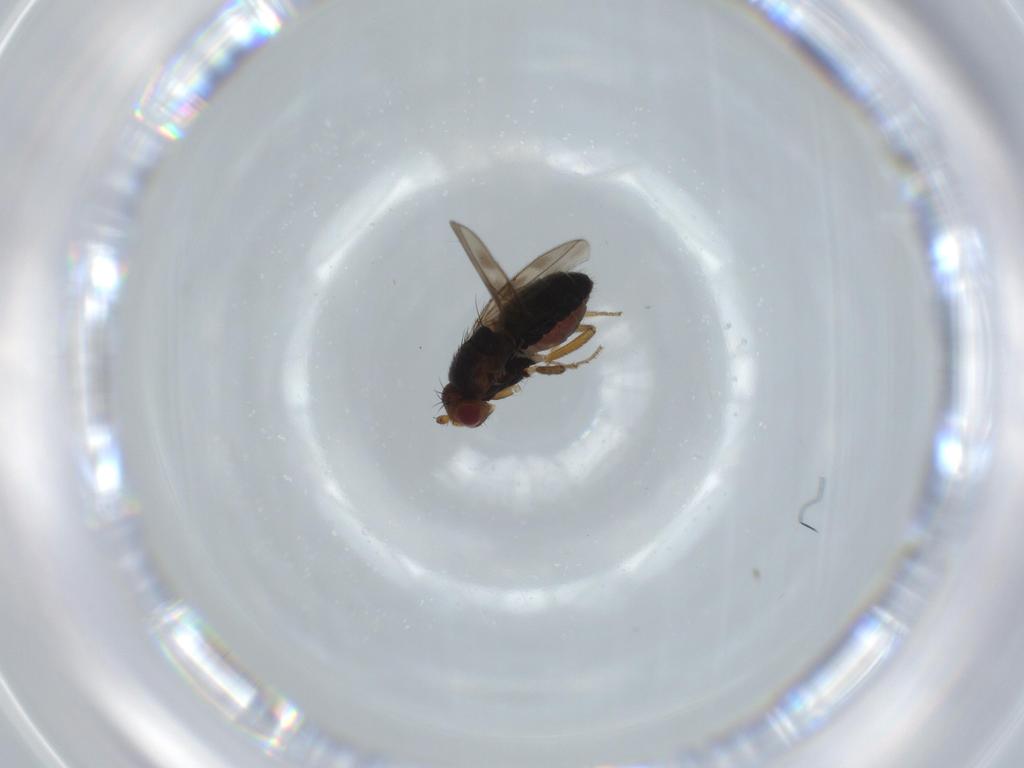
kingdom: Animalia
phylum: Arthropoda
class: Insecta
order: Diptera
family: Sphaeroceridae
